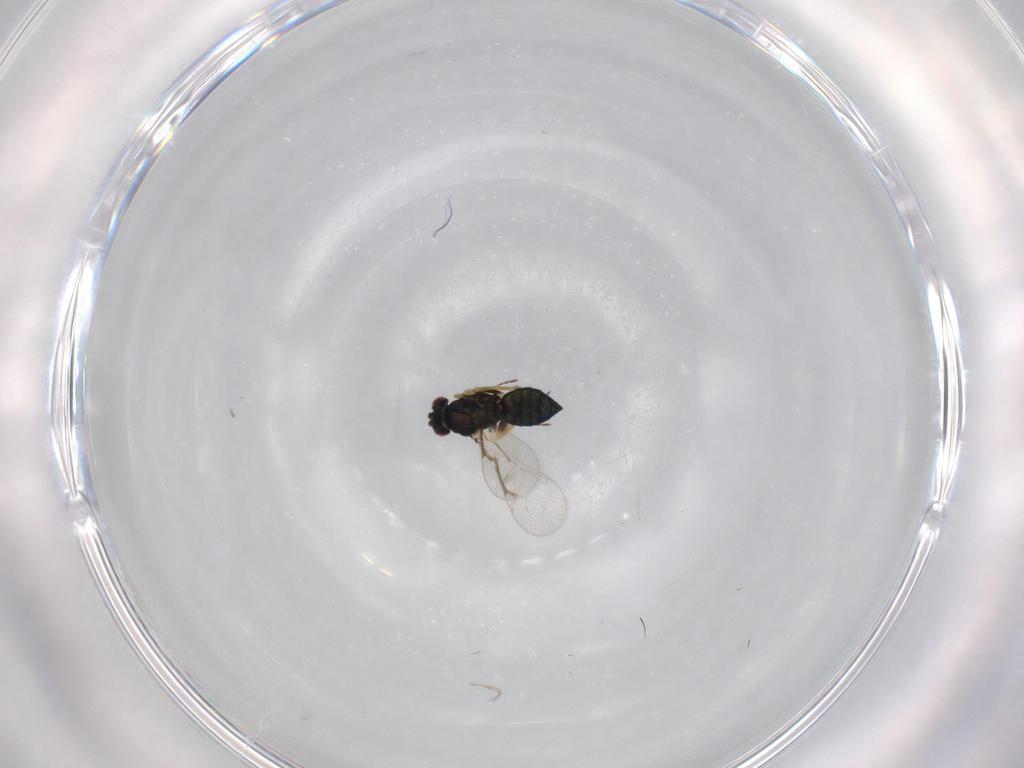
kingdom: Animalia
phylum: Arthropoda
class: Insecta
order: Hymenoptera
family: Eulophidae
